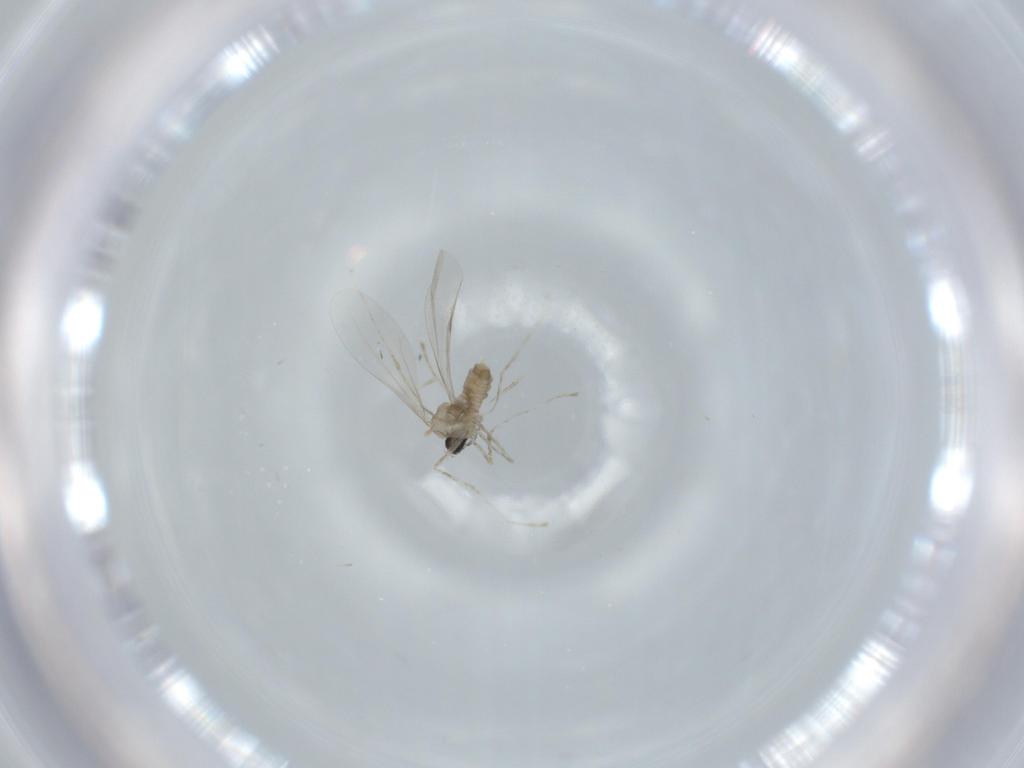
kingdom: Animalia
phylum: Arthropoda
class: Insecta
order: Diptera
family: Cecidomyiidae
